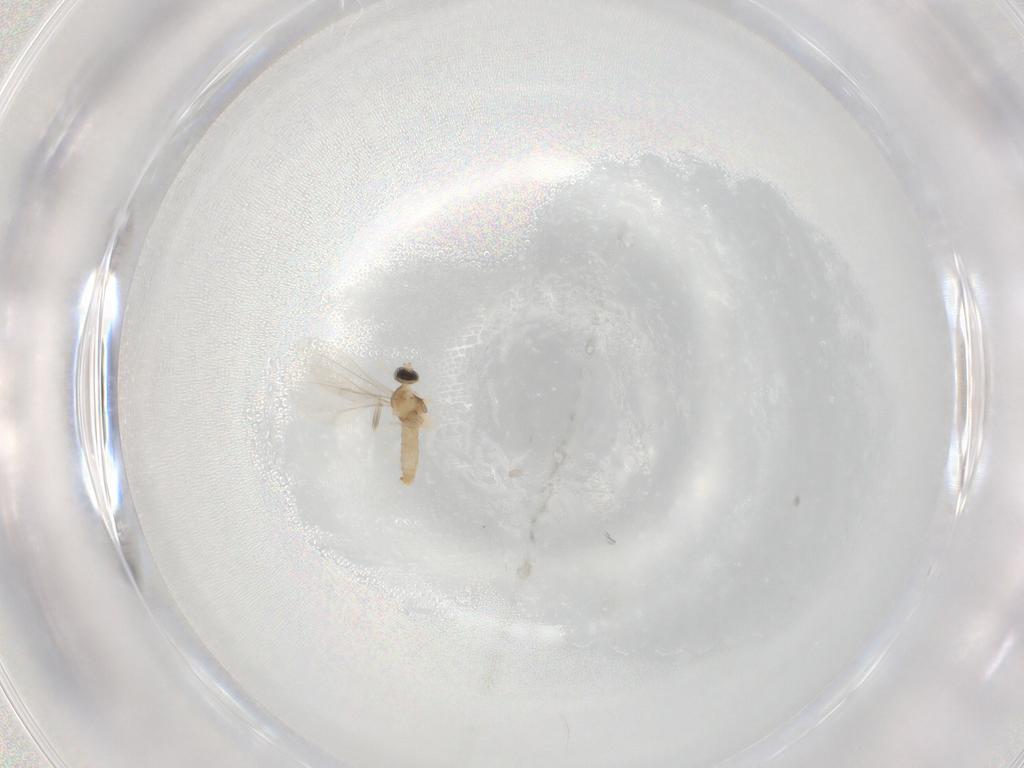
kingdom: Animalia
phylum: Arthropoda
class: Insecta
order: Diptera
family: Cecidomyiidae
